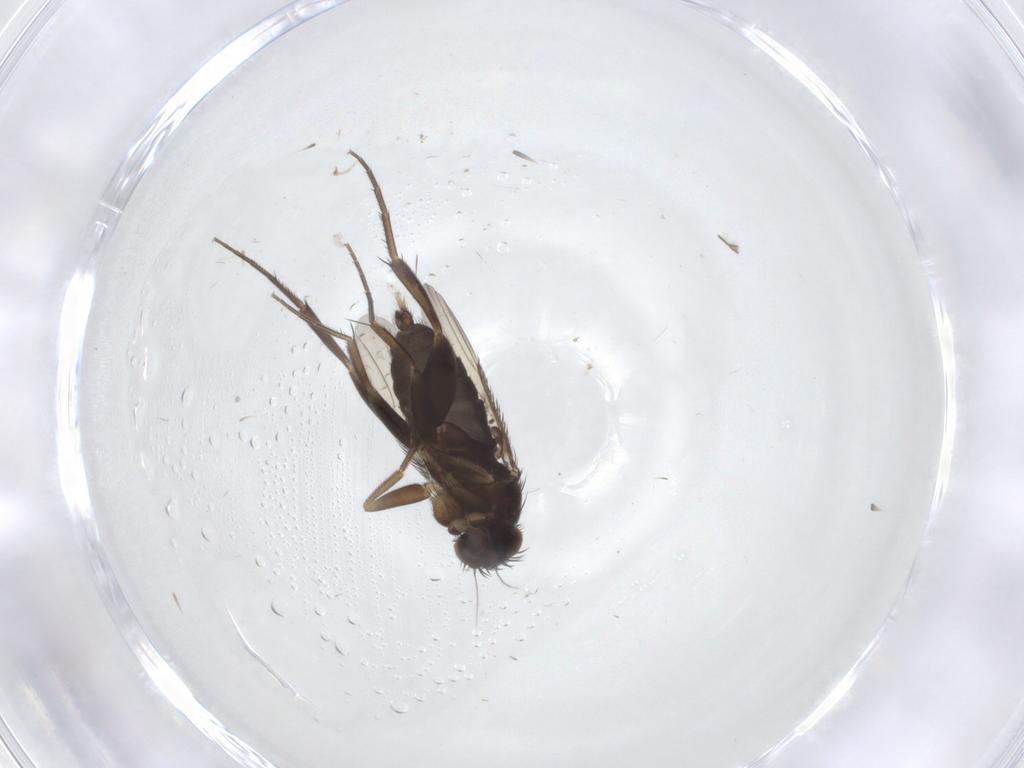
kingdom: Animalia
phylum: Arthropoda
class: Insecta
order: Diptera
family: Phoridae
